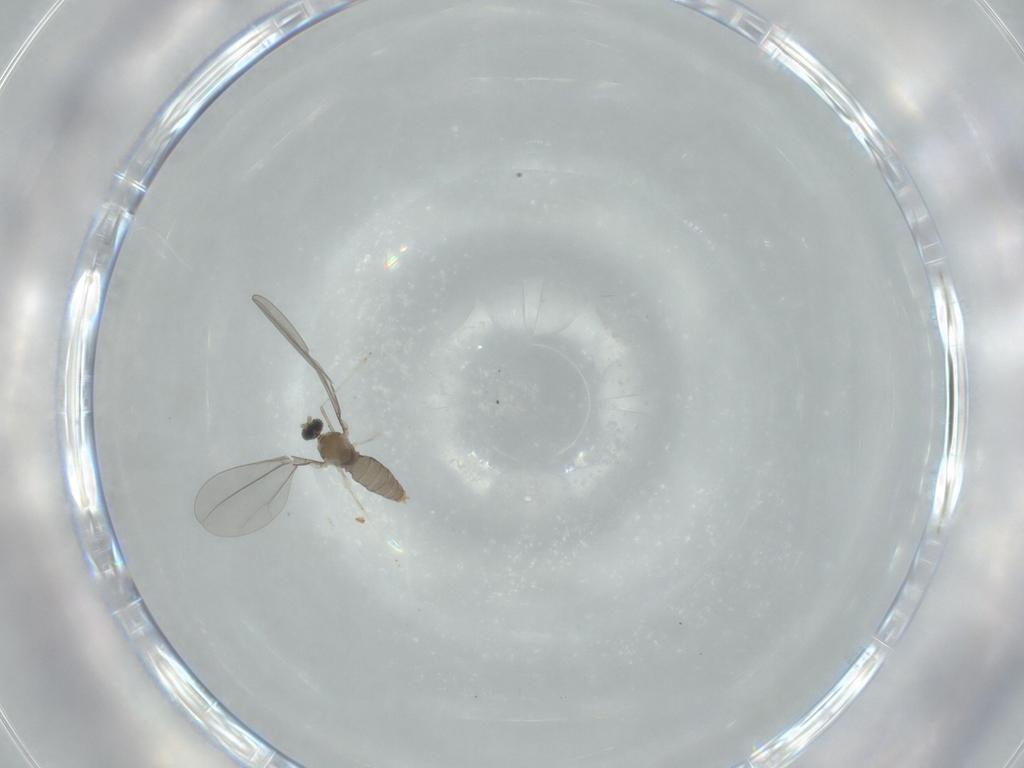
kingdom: Animalia
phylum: Arthropoda
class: Insecta
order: Diptera
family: Cecidomyiidae
